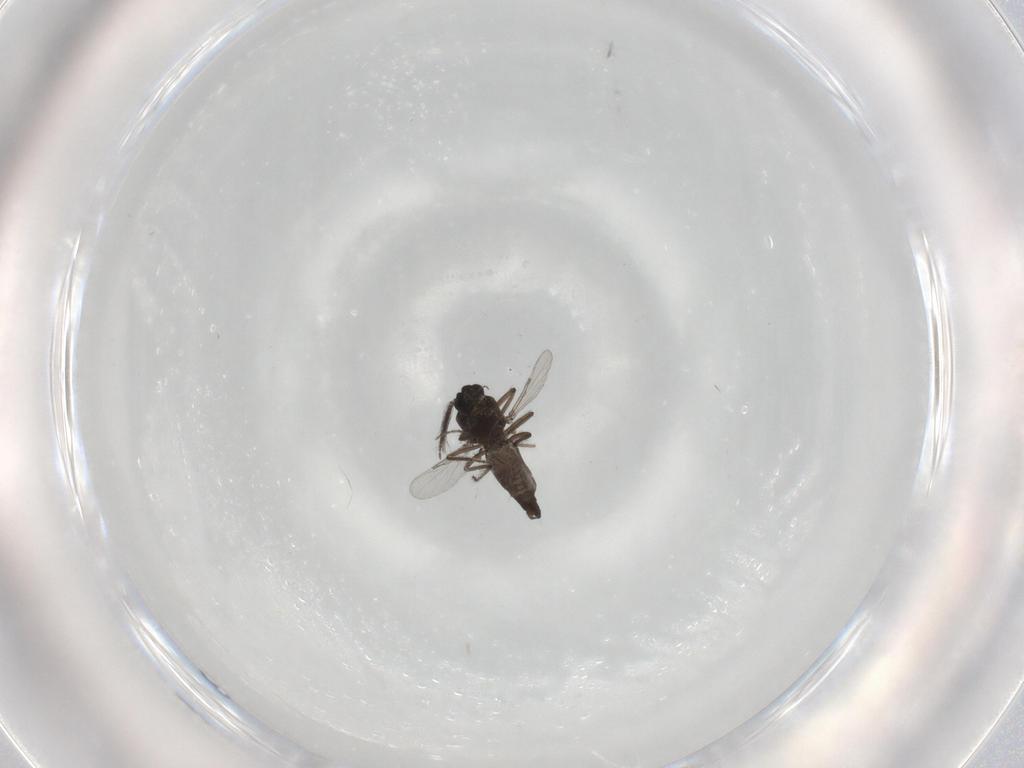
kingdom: Animalia
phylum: Arthropoda
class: Insecta
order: Diptera
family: Ceratopogonidae
